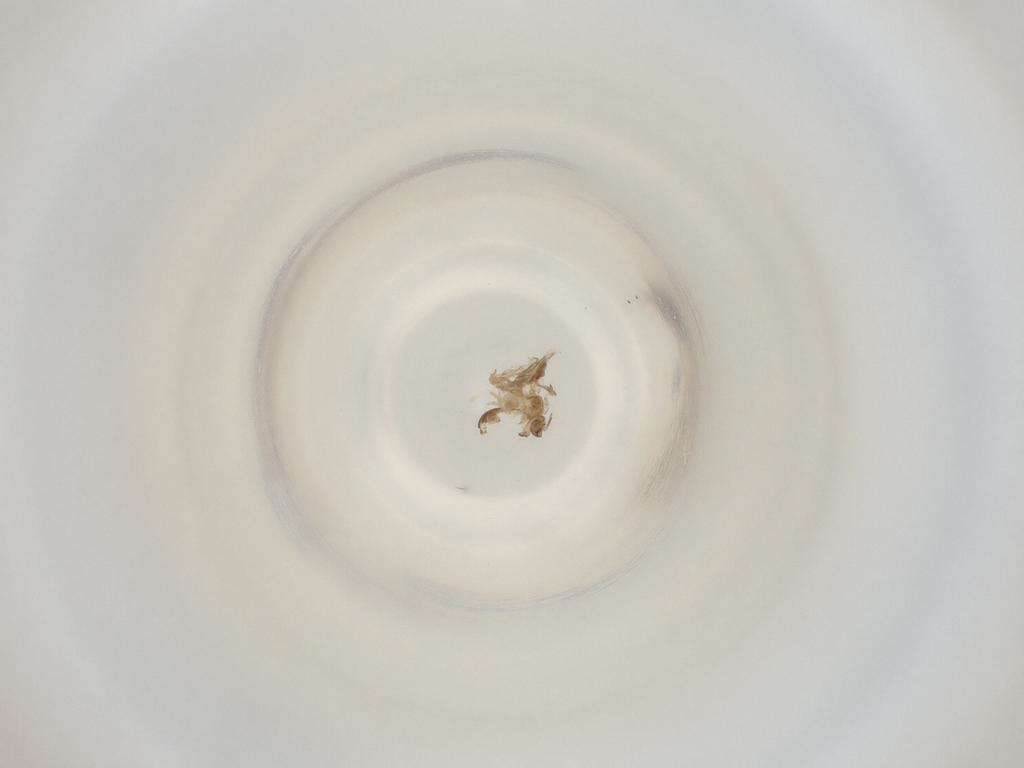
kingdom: Animalia
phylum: Arthropoda
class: Insecta
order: Diptera
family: Cecidomyiidae
